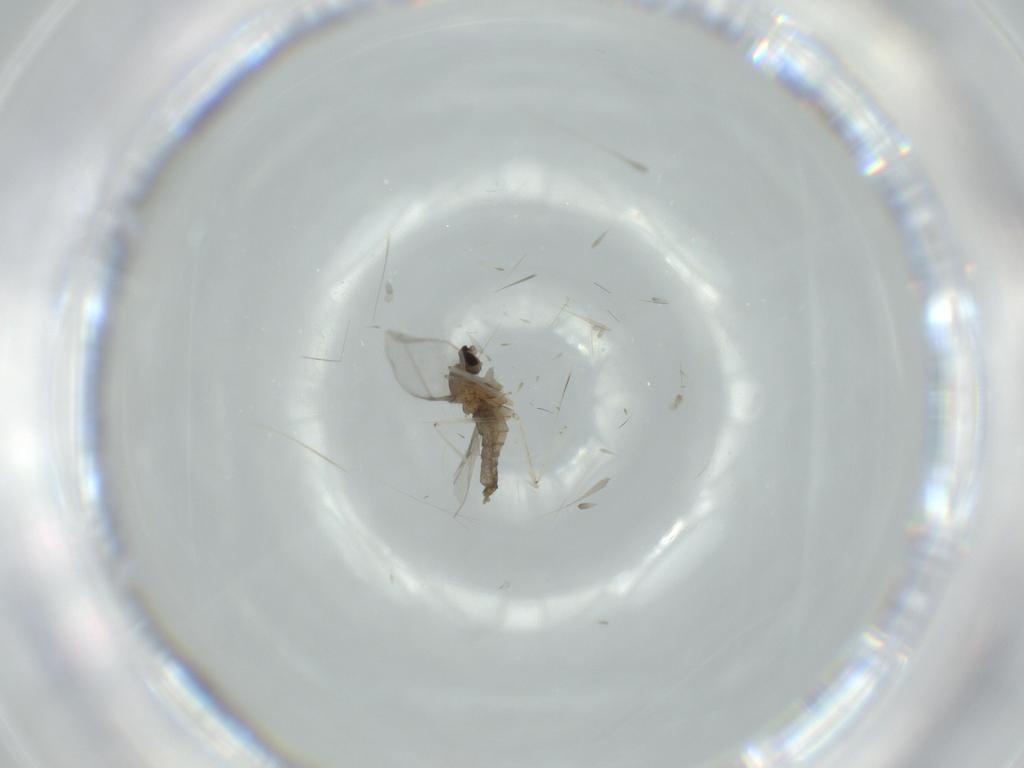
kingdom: Animalia
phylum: Arthropoda
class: Insecta
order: Diptera
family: Cecidomyiidae
